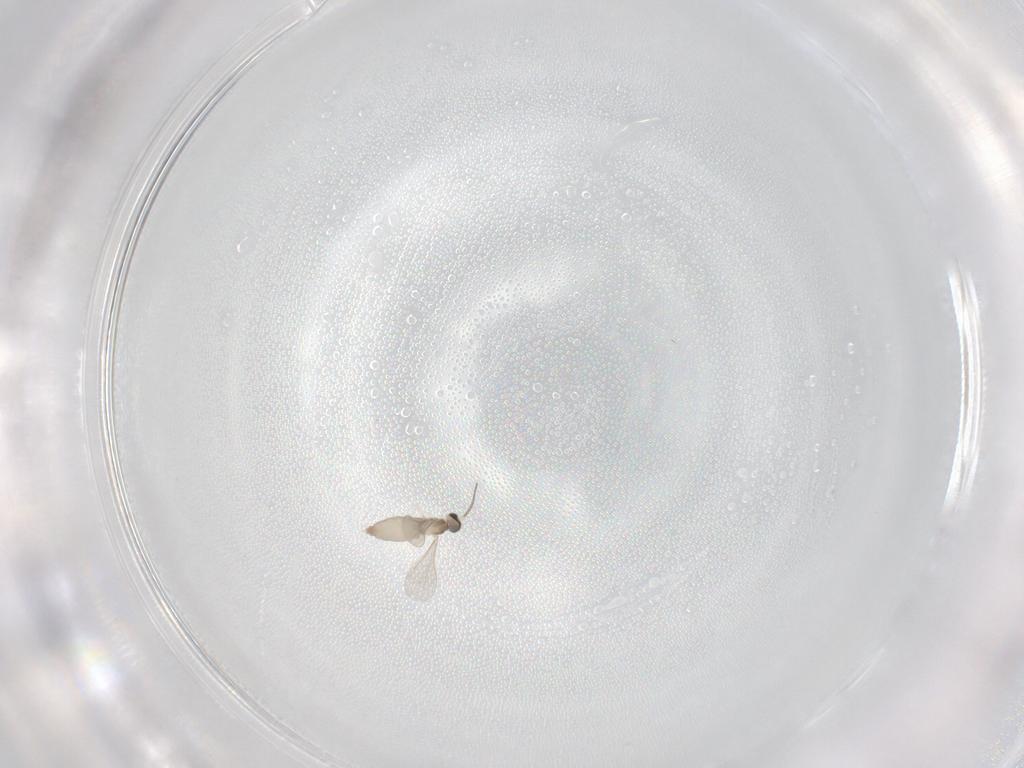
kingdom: Animalia
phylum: Arthropoda
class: Insecta
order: Diptera
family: Cecidomyiidae
